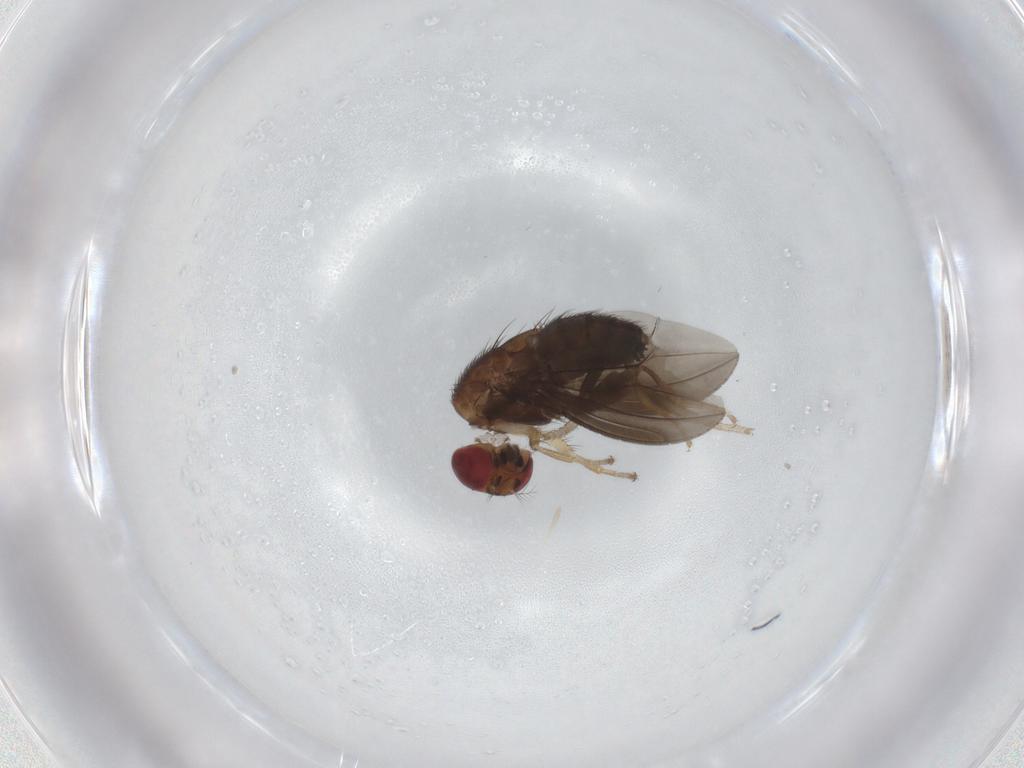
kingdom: Animalia
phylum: Arthropoda
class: Insecta
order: Diptera
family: Drosophilidae
